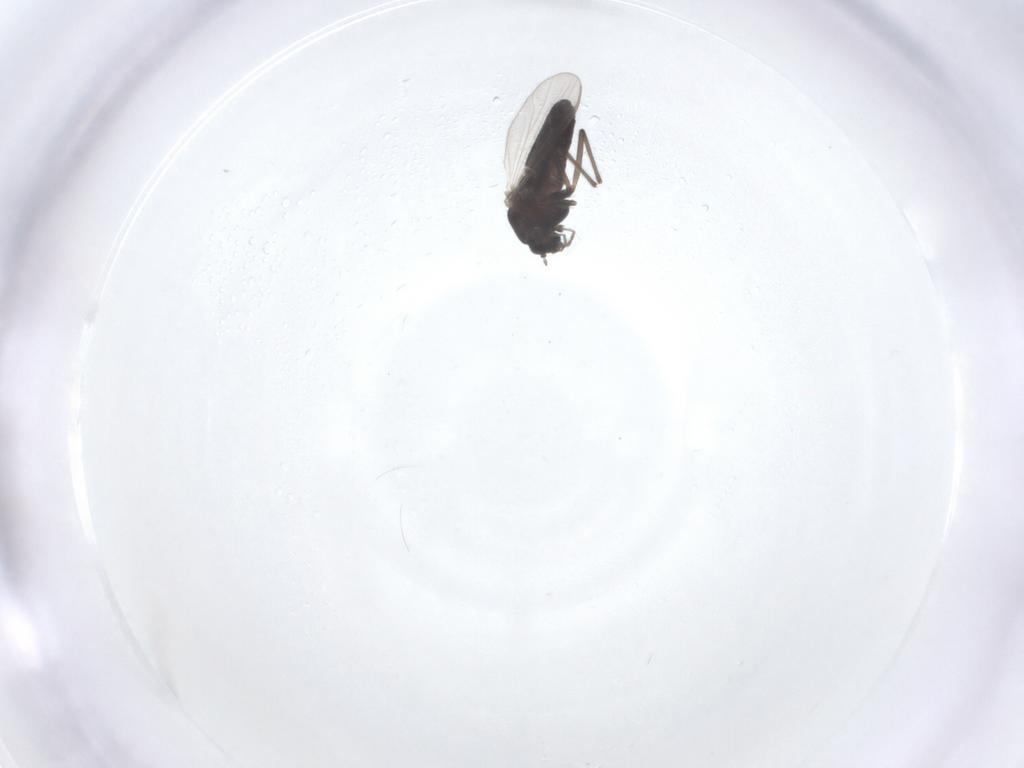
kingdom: Animalia
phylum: Arthropoda
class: Insecta
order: Diptera
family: Chironomidae
